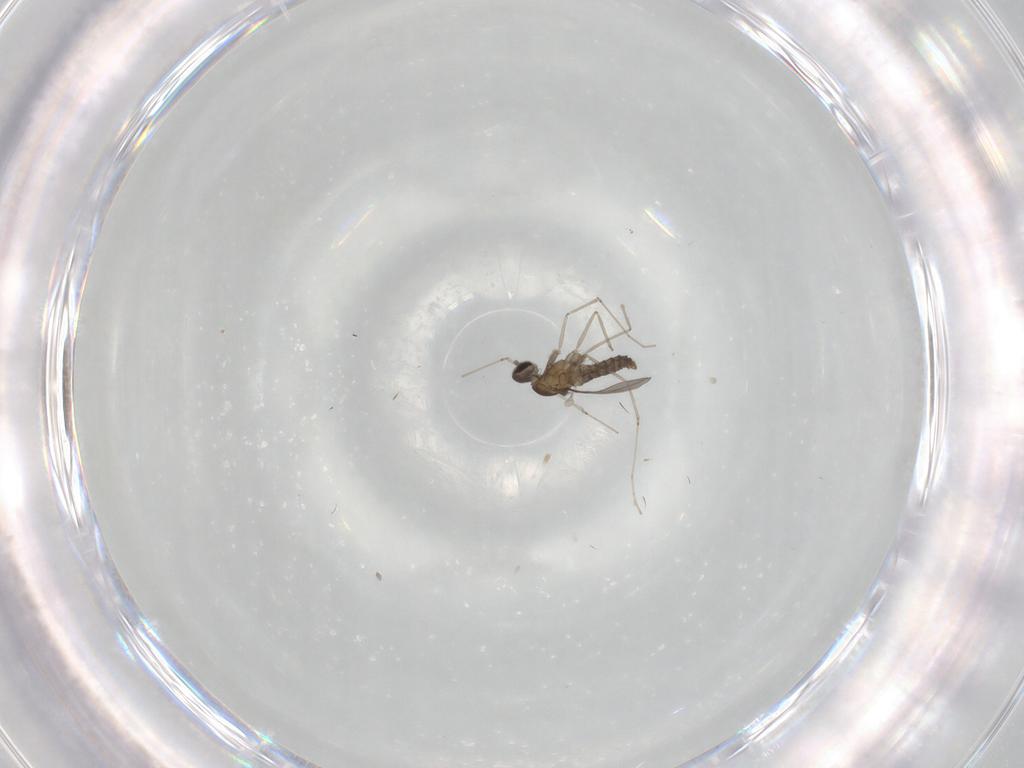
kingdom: Animalia
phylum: Arthropoda
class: Insecta
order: Diptera
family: Cecidomyiidae
